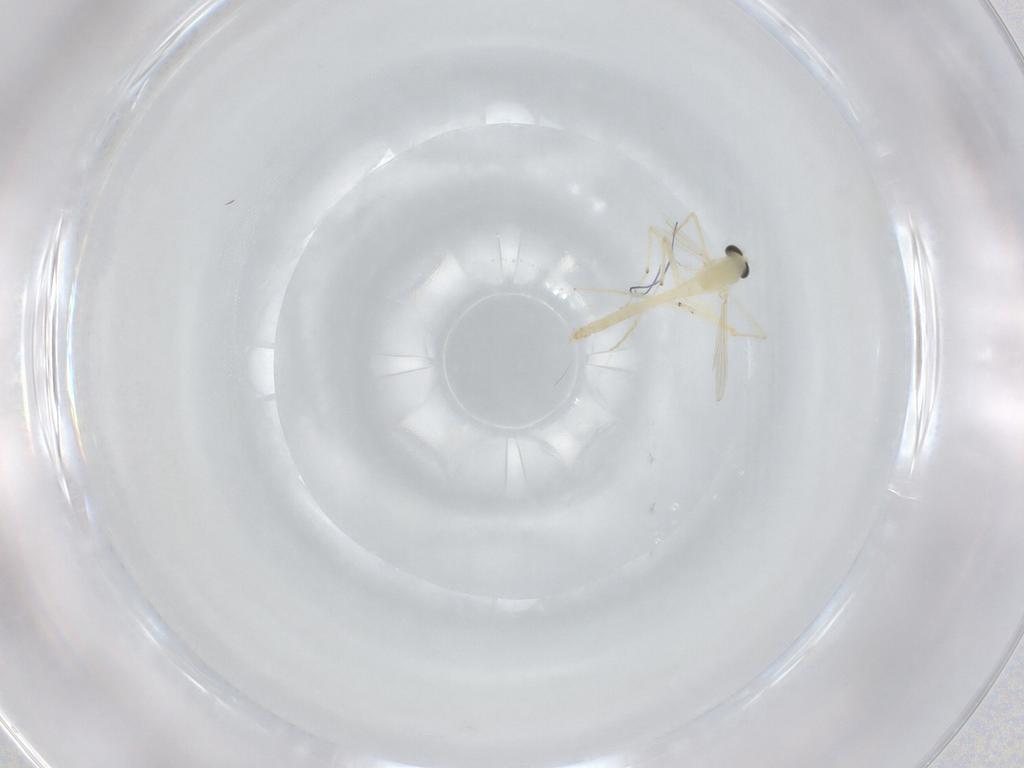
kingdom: Animalia
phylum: Arthropoda
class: Insecta
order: Diptera
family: Chironomidae
